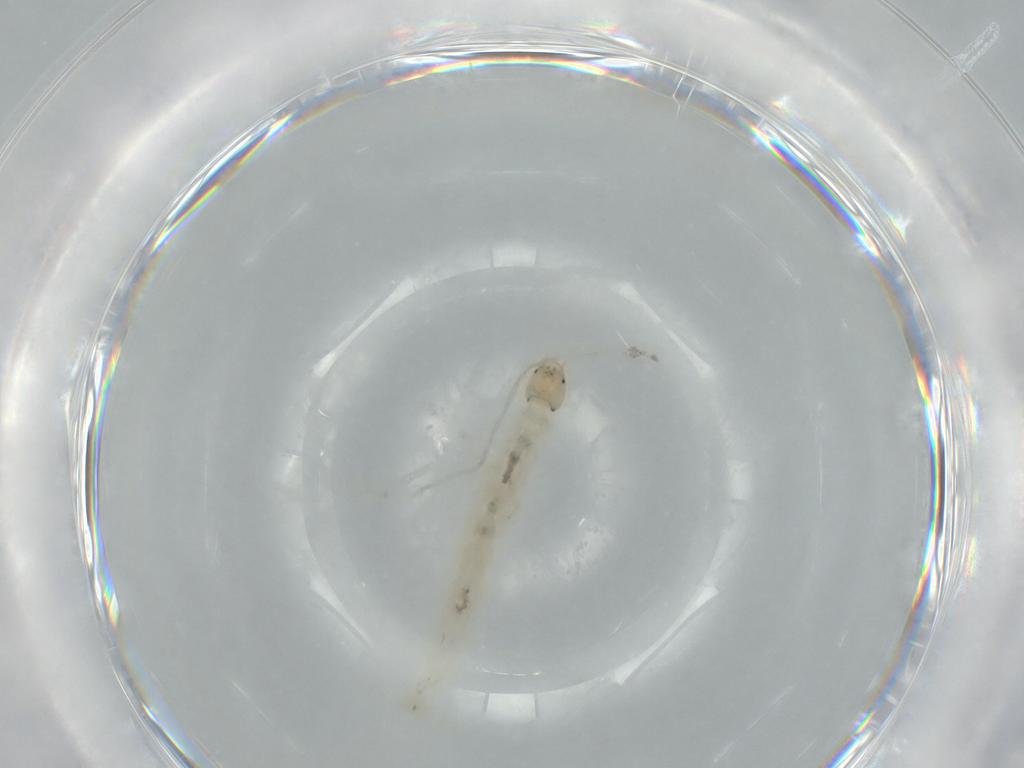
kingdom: Animalia
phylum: Arthropoda
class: Insecta
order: Diptera
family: Chironomidae
